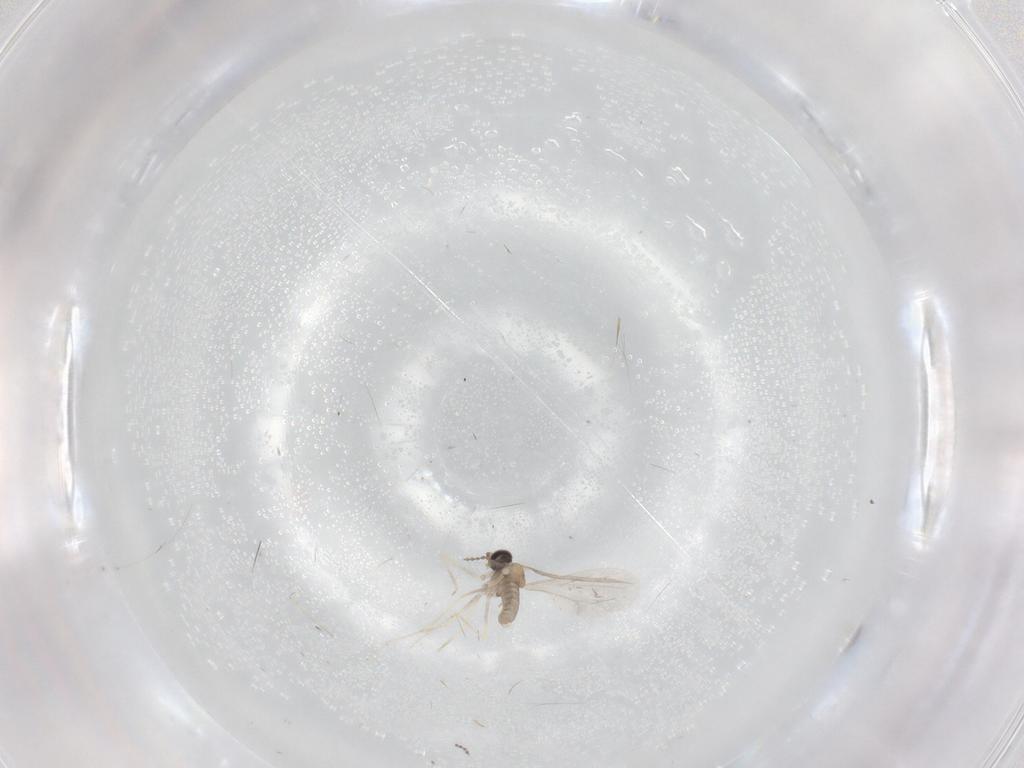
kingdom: Animalia
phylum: Arthropoda
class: Insecta
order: Diptera
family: Cecidomyiidae
